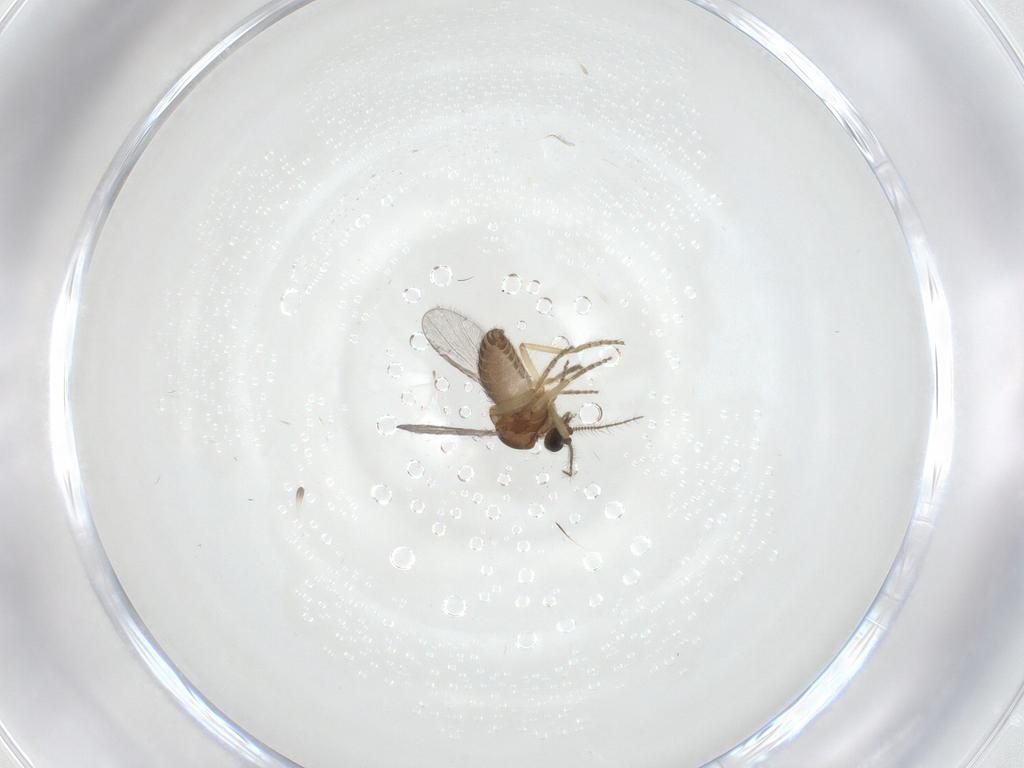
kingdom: Animalia
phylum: Arthropoda
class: Insecta
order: Diptera
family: Ceratopogonidae
